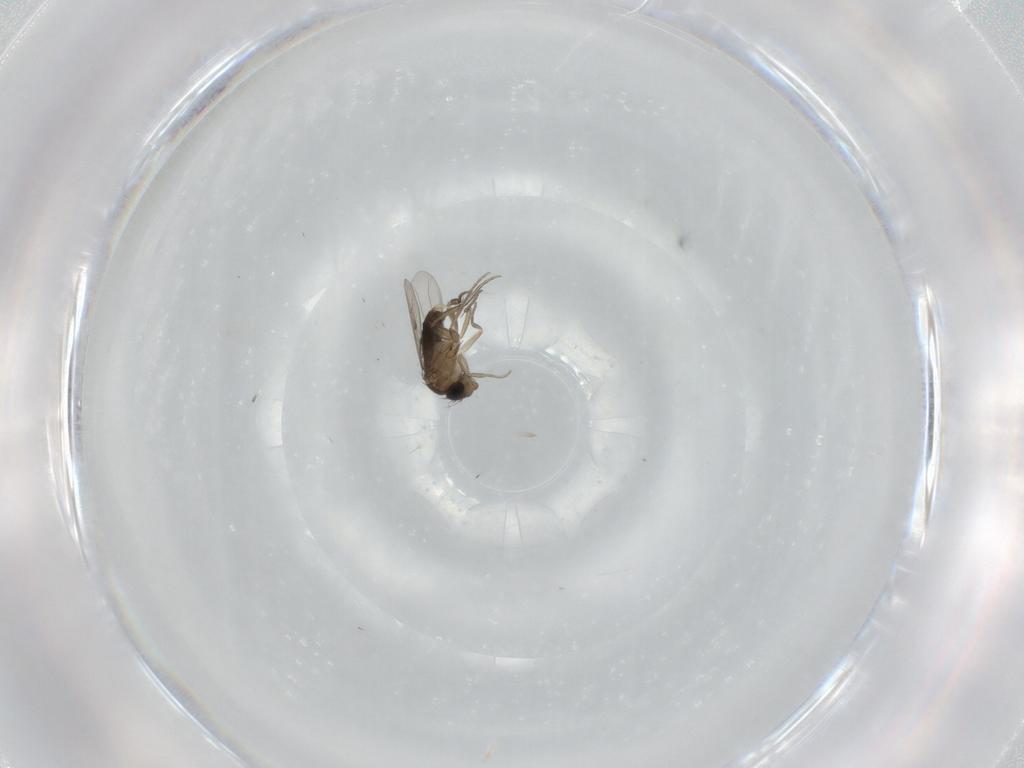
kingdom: Animalia
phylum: Arthropoda
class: Insecta
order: Diptera
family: Phoridae
